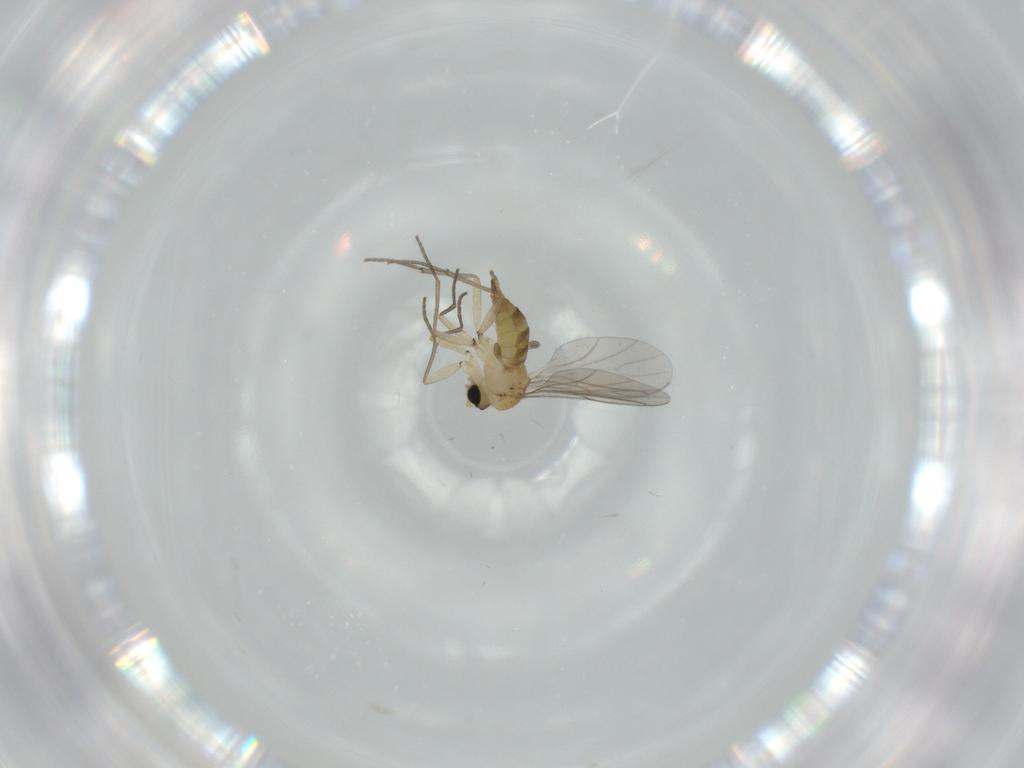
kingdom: Animalia
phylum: Arthropoda
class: Insecta
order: Diptera
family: Sciaridae
